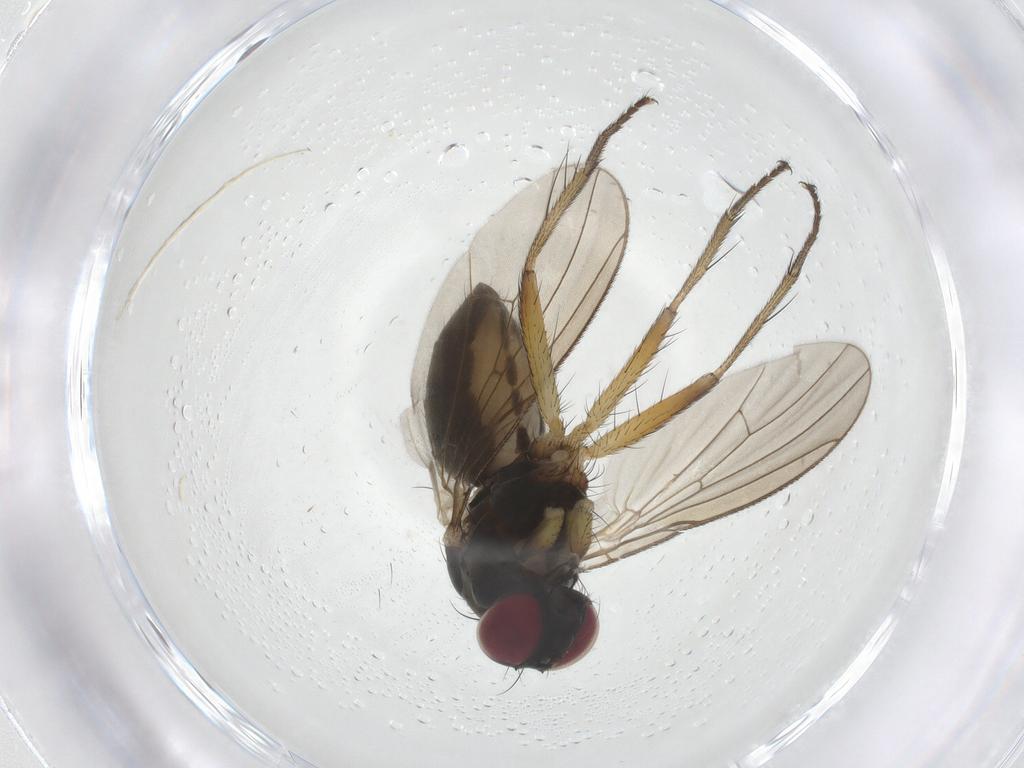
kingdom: Animalia
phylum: Arthropoda
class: Insecta
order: Diptera
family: Muscidae
